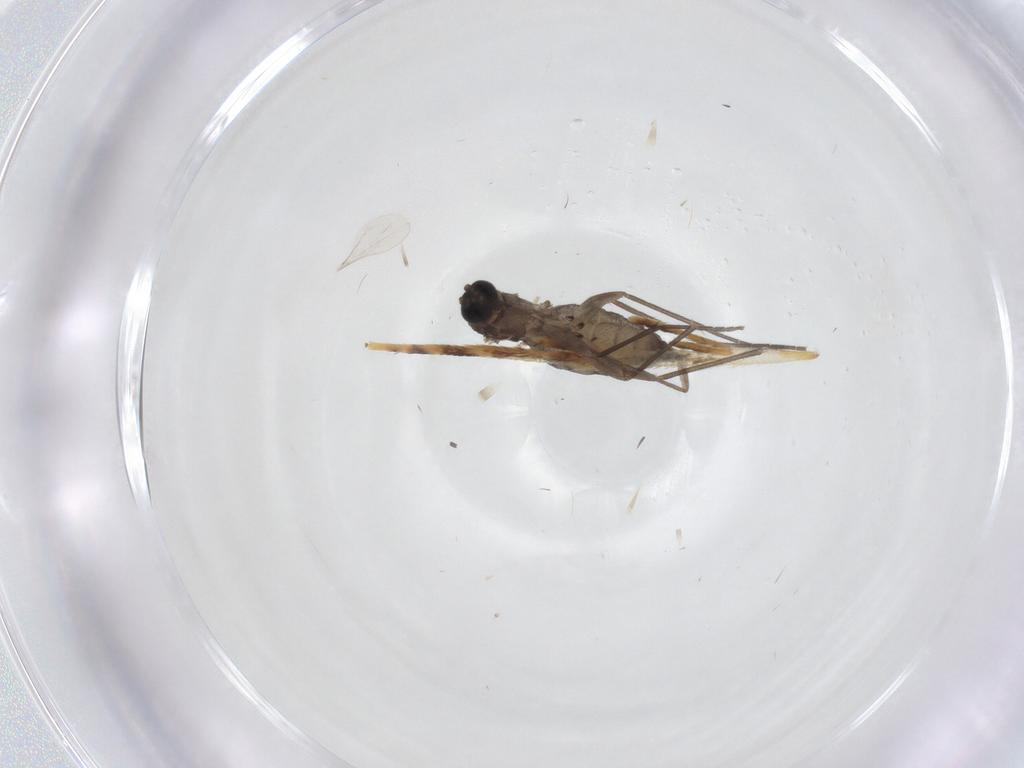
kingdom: Animalia
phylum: Arthropoda
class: Insecta
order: Diptera
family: Sciaridae
